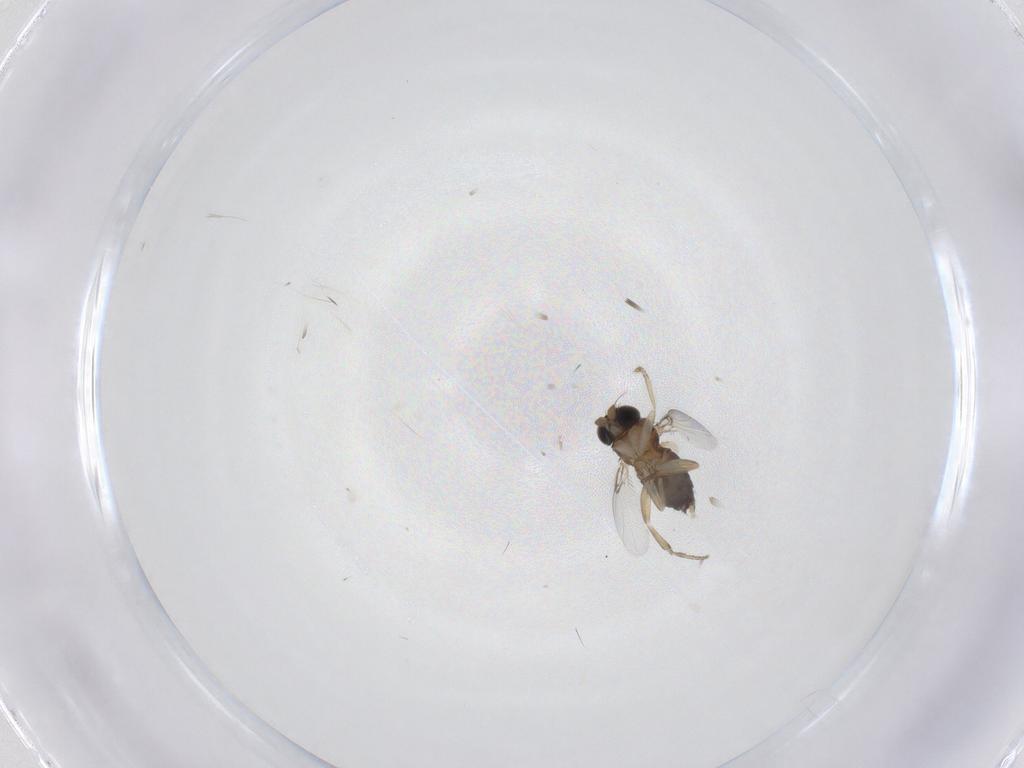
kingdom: Animalia
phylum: Arthropoda
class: Insecta
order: Diptera
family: Phoridae
